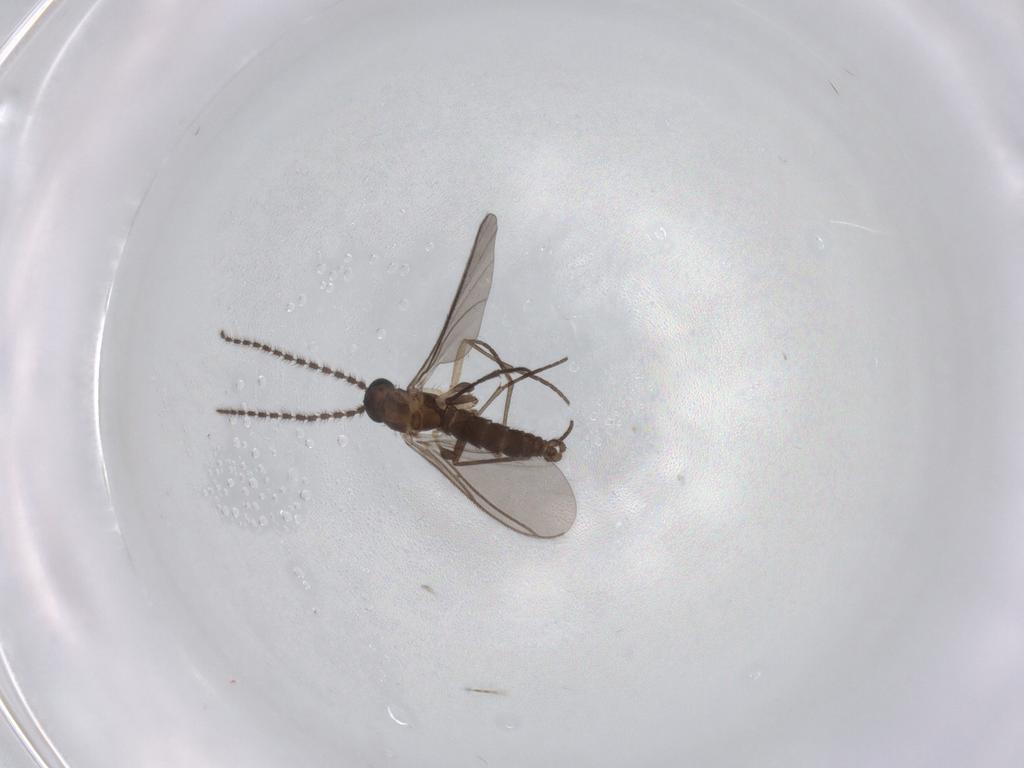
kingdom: Animalia
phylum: Arthropoda
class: Insecta
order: Diptera
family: Sciaridae
